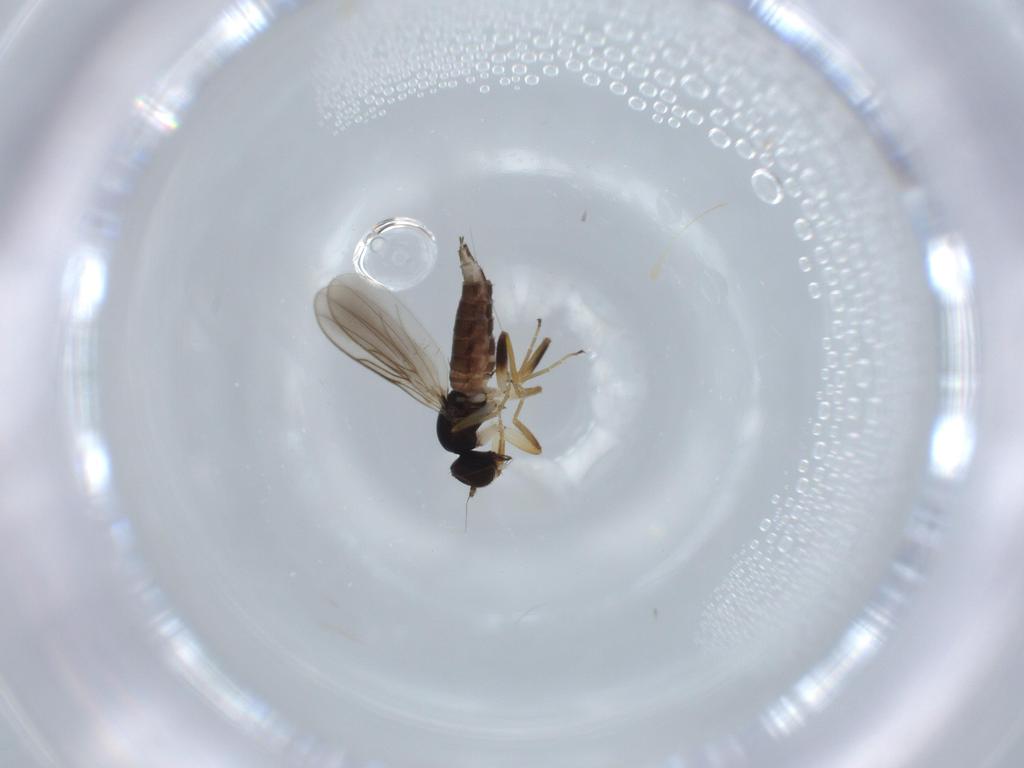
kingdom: Animalia
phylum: Arthropoda
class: Insecta
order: Diptera
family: Hybotidae
